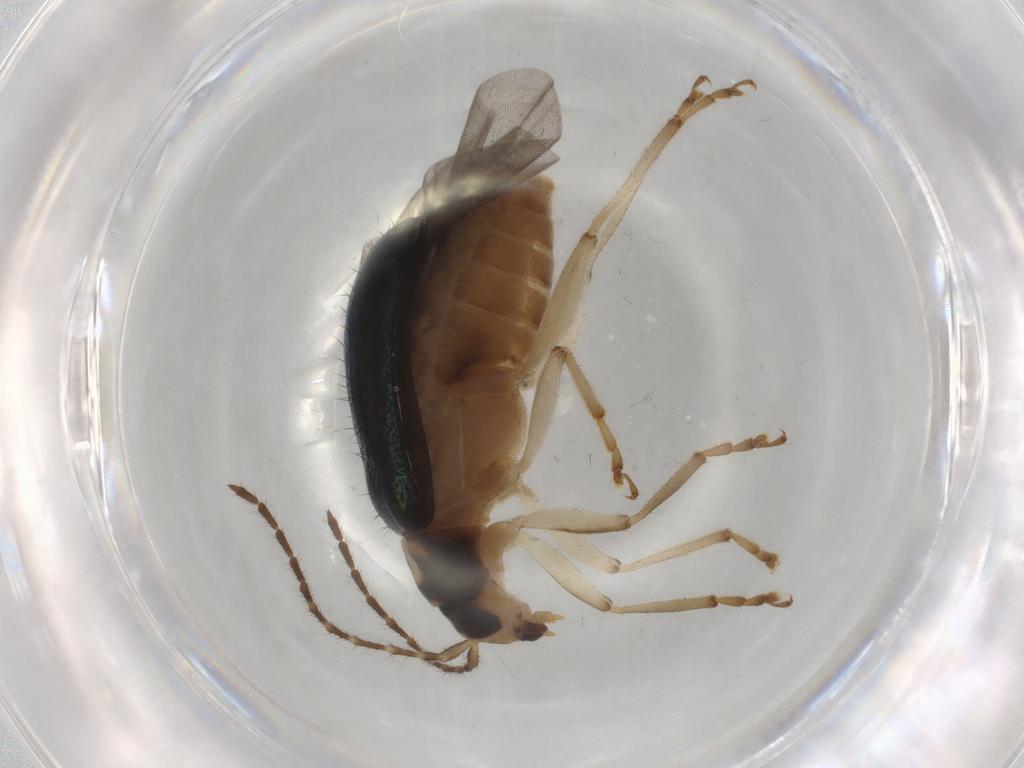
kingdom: Animalia
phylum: Arthropoda
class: Insecta
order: Coleoptera
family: Chrysomelidae
